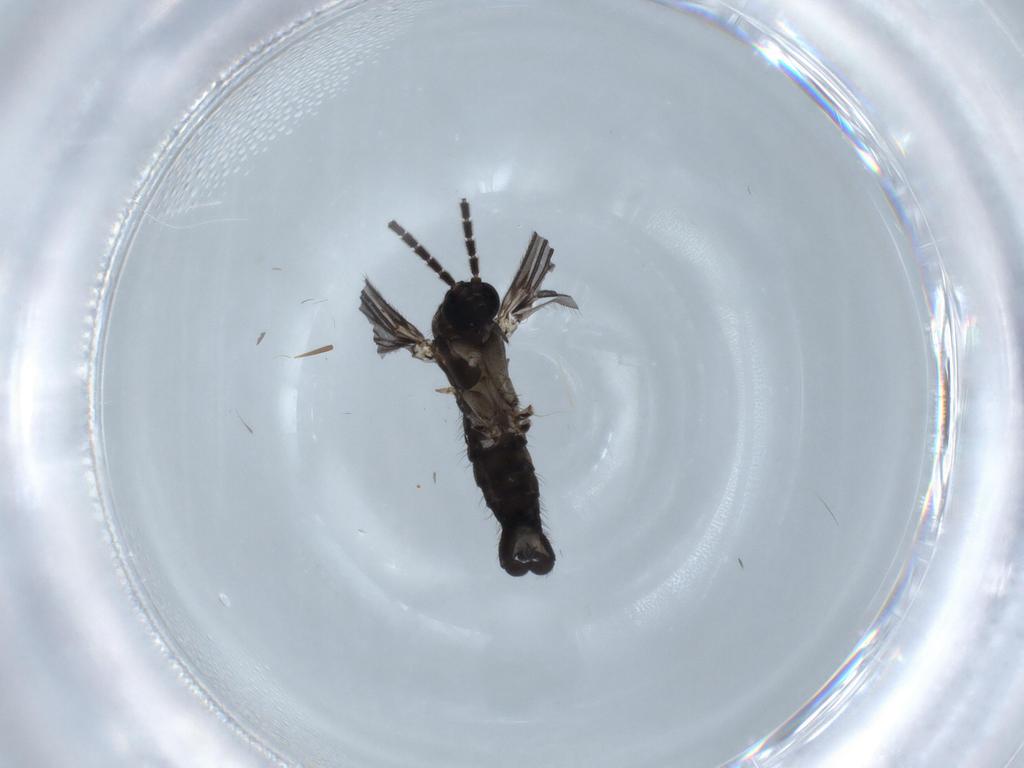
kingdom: Animalia
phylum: Arthropoda
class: Insecta
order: Diptera
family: Sciaridae
